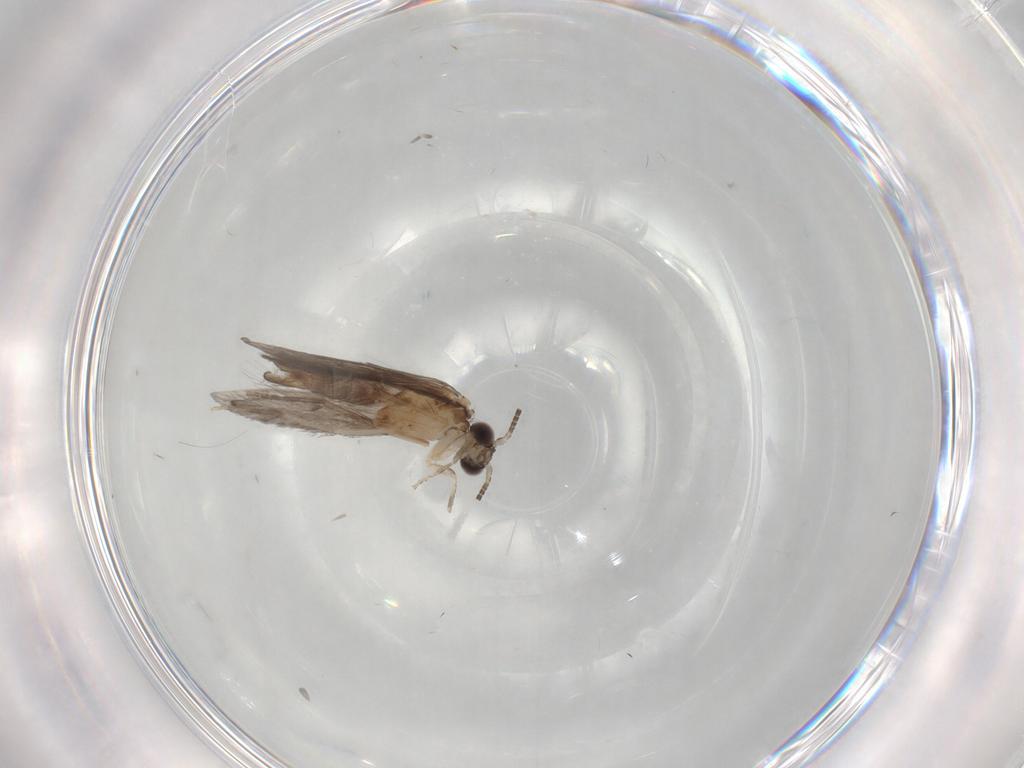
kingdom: Animalia
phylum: Arthropoda
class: Insecta
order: Trichoptera
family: Hydroptilidae
